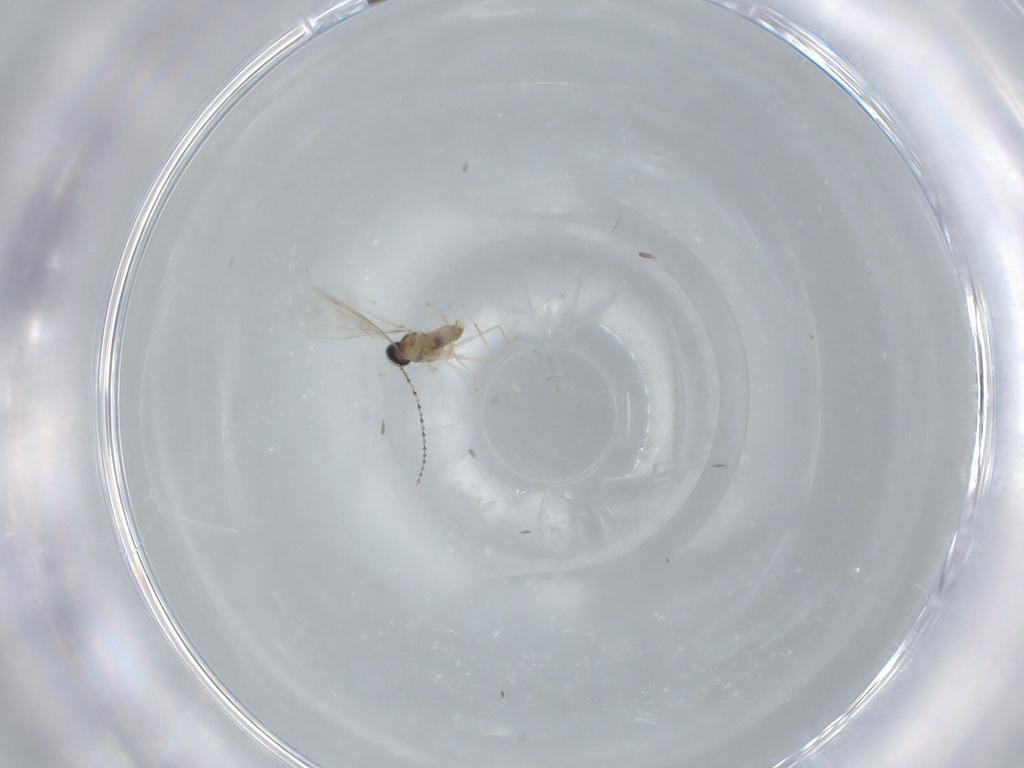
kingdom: Animalia
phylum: Arthropoda
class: Insecta
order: Diptera
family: Cecidomyiidae
